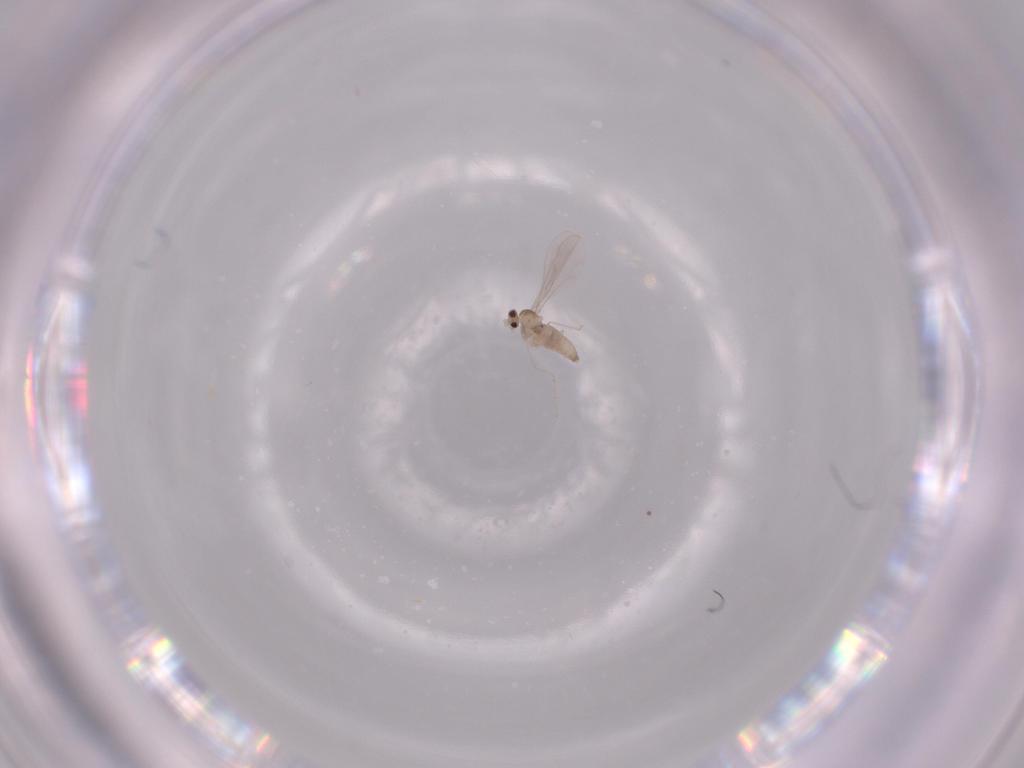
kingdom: Animalia
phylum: Arthropoda
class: Insecta
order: Diptera
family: Cecidomyiidae
